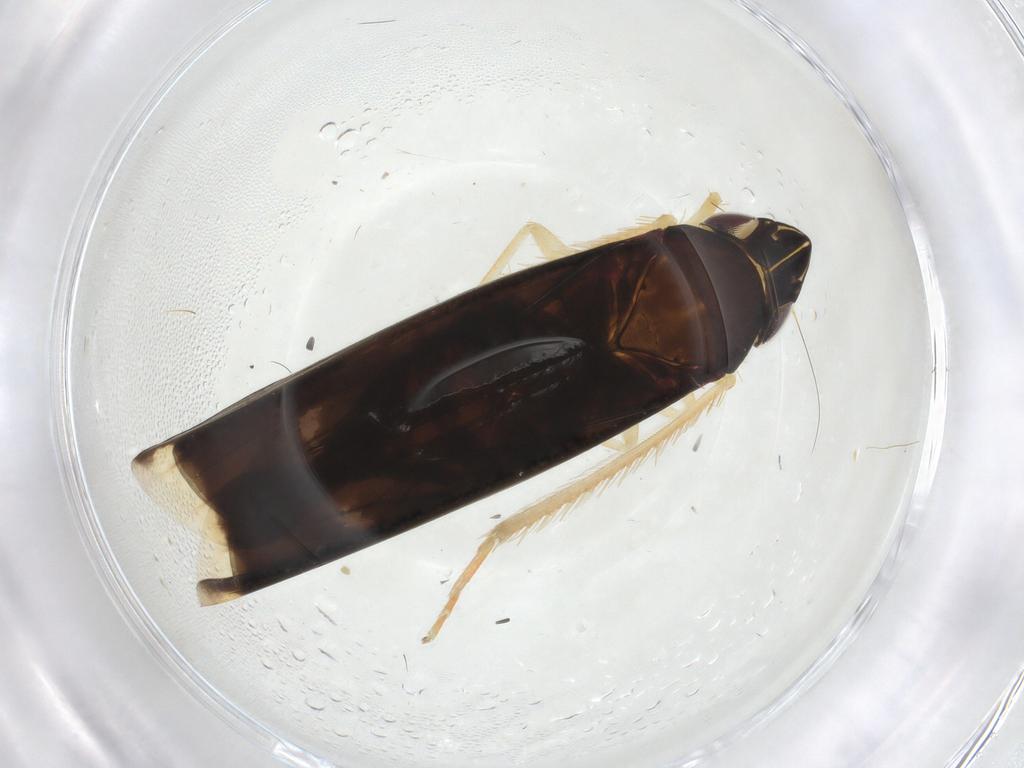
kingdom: Animalia
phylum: Arthropoda
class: Insecta
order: Hemiptera
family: Cicadellidae
